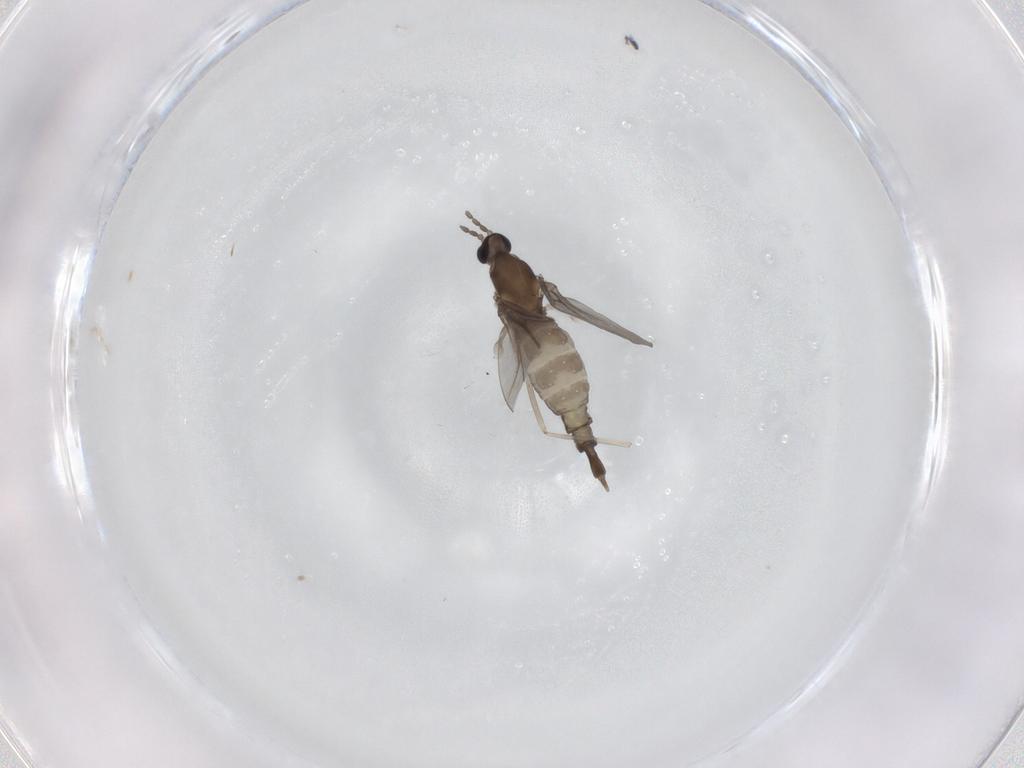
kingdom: Animalia
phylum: Arthropoda
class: Insecta
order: Diptera
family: Cecidomyiidae
